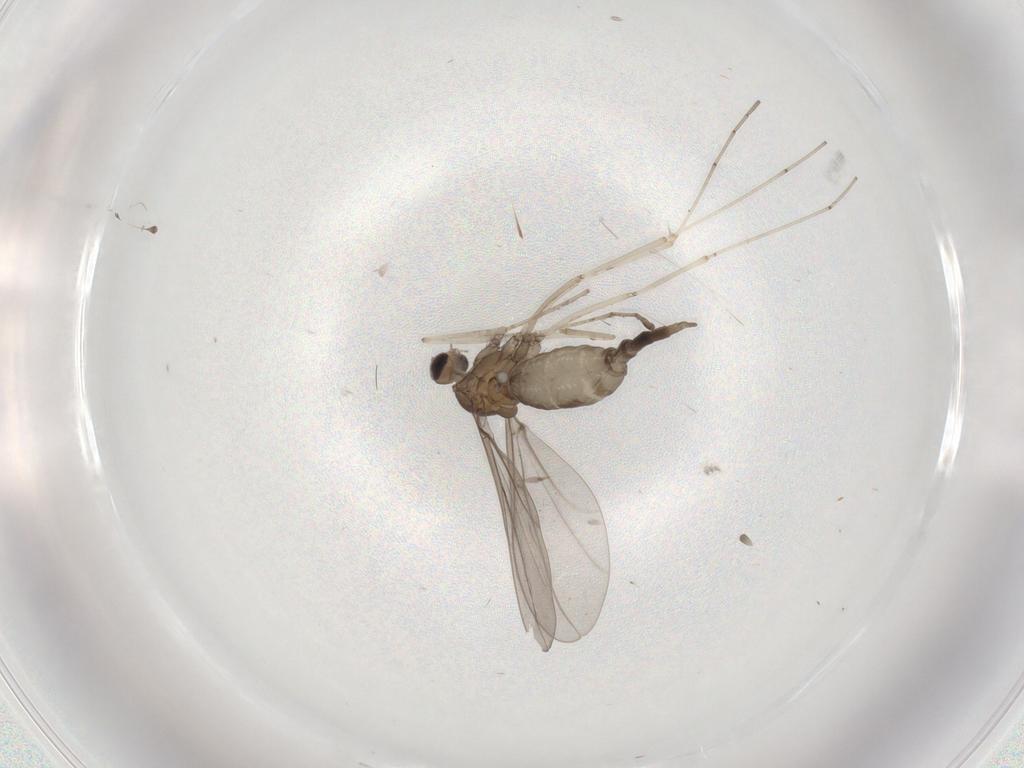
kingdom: Animalia
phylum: Arthropoda
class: Insecta
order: Diptera
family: Cecidomyiidae
